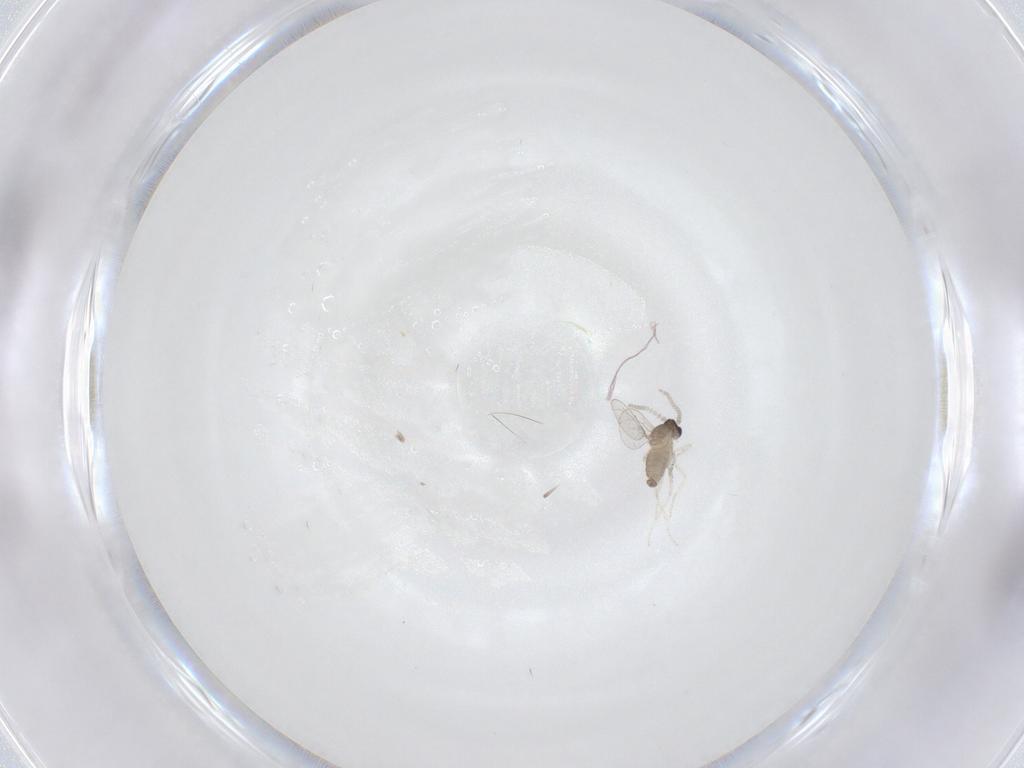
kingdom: Animalia
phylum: Arthropoda
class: Insecta
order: Diptera
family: Cecidomyiidae
